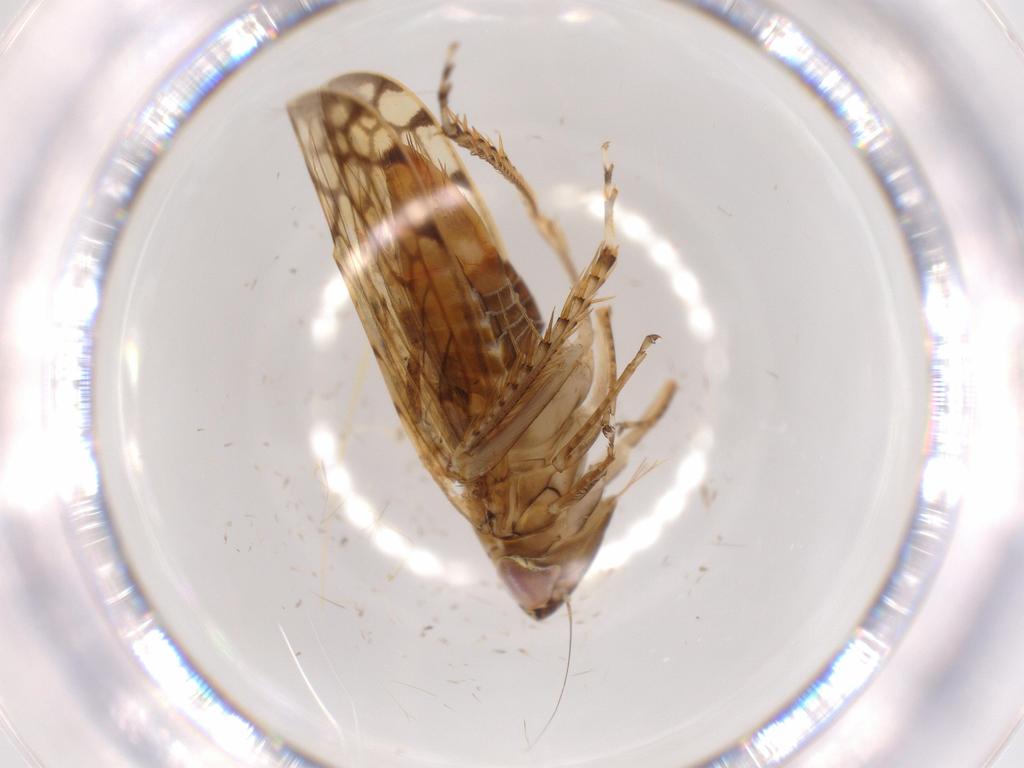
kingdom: Animalia
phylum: Arthropoda
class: Insecta
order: Hemiptera
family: Cicadellidae
